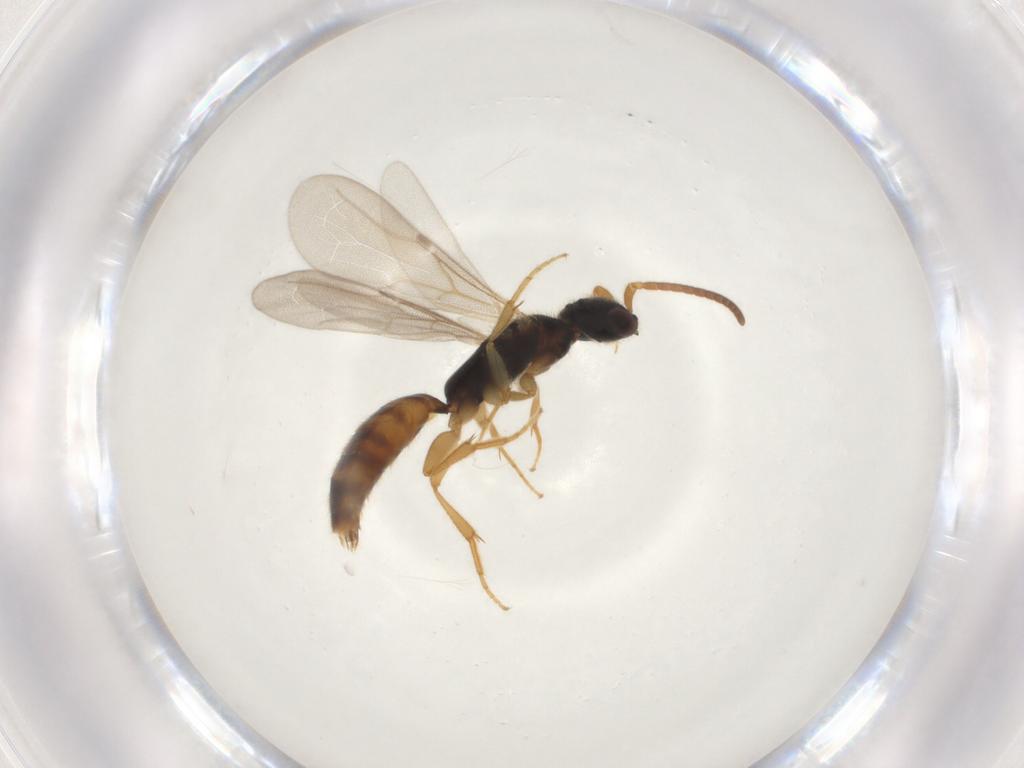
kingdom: Animalia
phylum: Arthropoda
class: Insecta
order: Hymenoptera
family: Bethylidae
